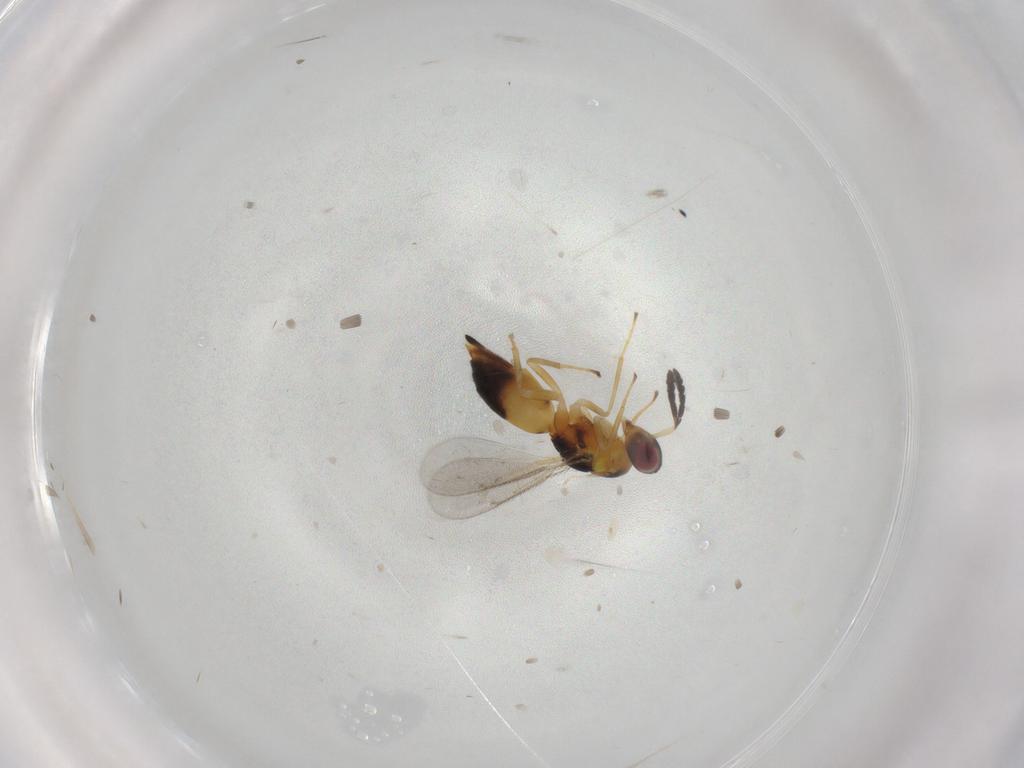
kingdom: Animalia
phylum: Arthropoda
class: Insecta
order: Hymenoptera
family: Eulophidae
